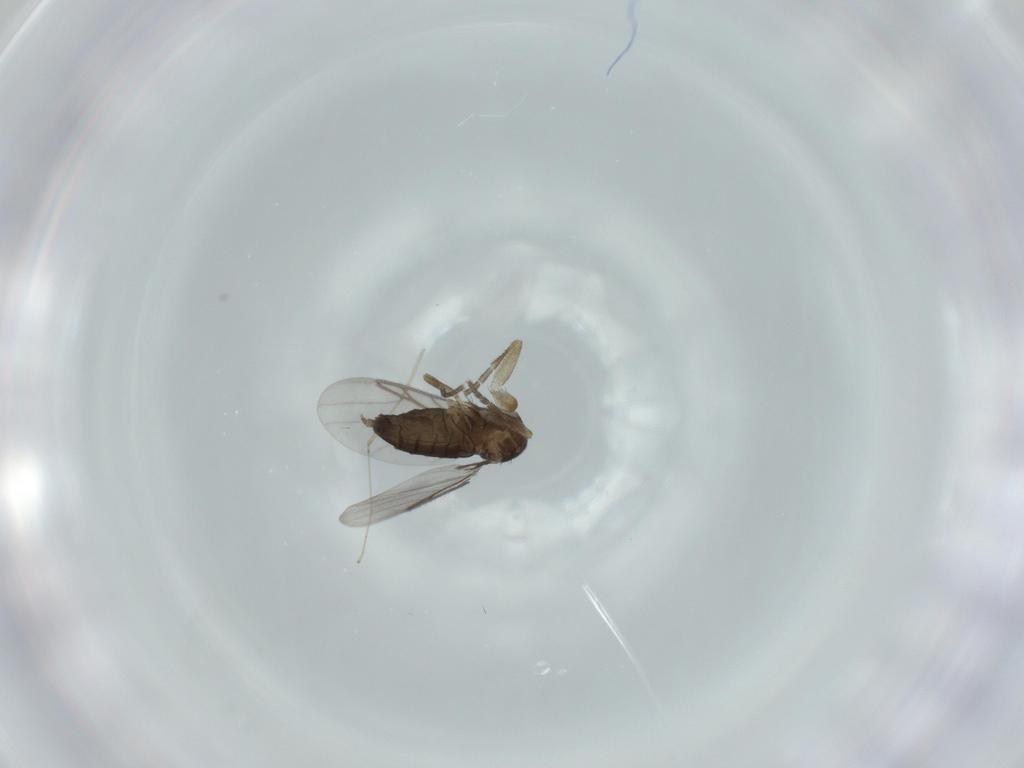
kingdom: Animalia
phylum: Arthropoda
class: Insecta
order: Diptera
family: Cecidomyiidae
